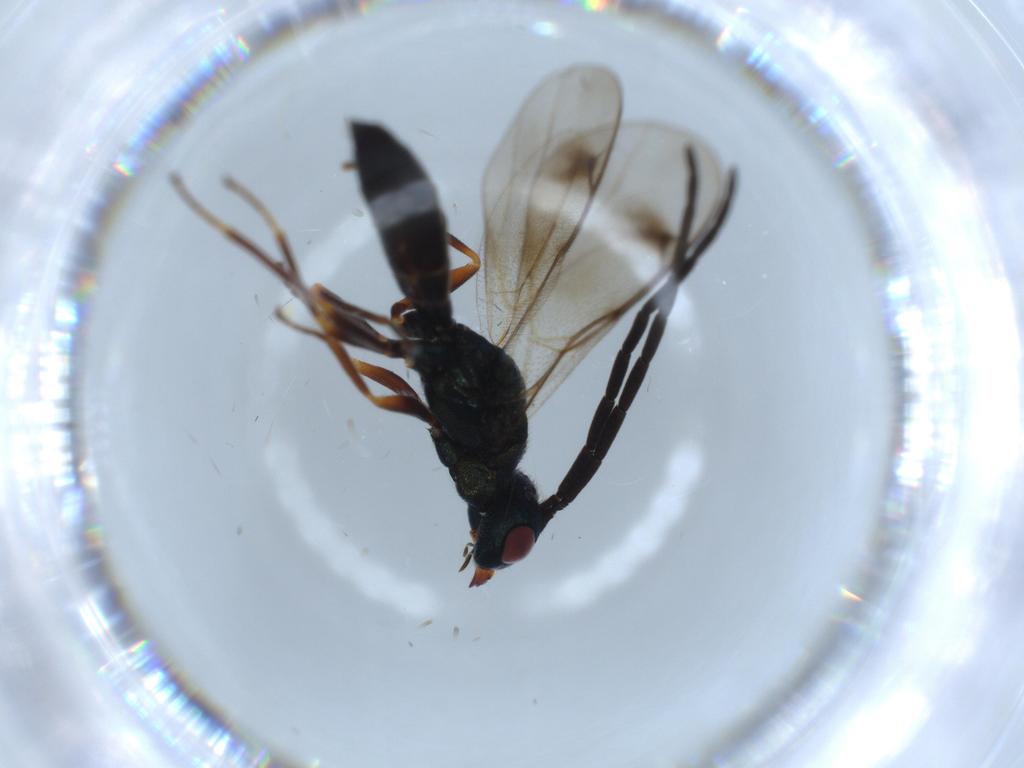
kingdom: Animalia
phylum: Arthropoda
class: Insecta
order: Hymenoptera
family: Pteromalidae
